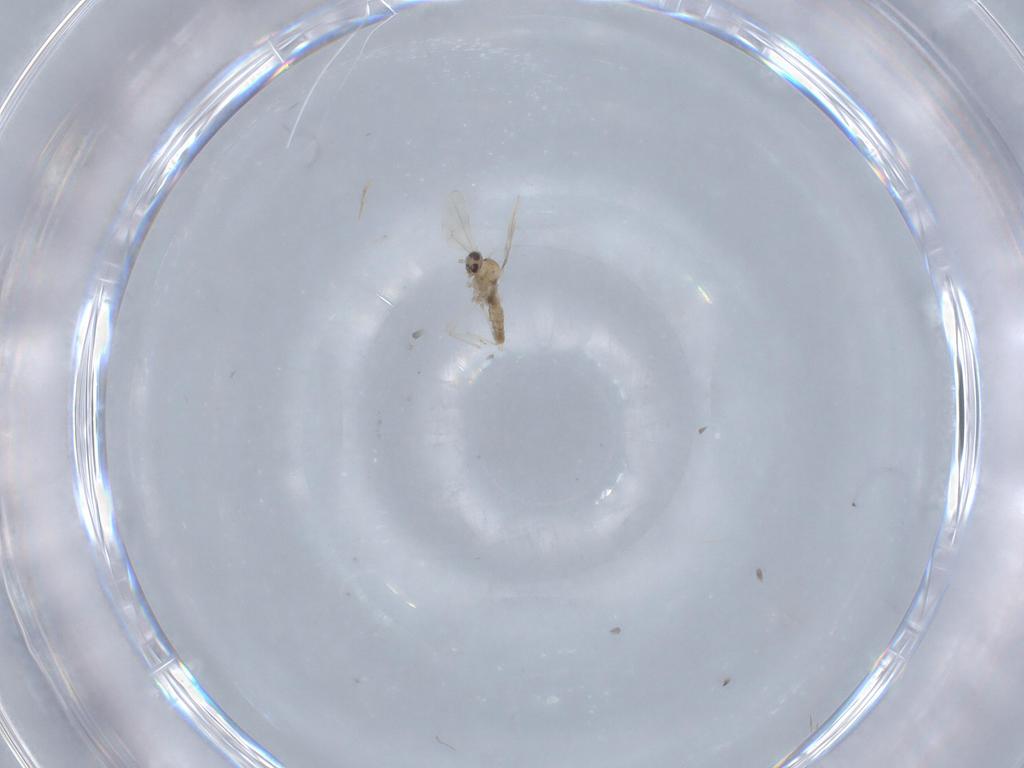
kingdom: Animalia
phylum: Arthropoda
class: Insecta
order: Diptera
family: Cecidomyiidae
